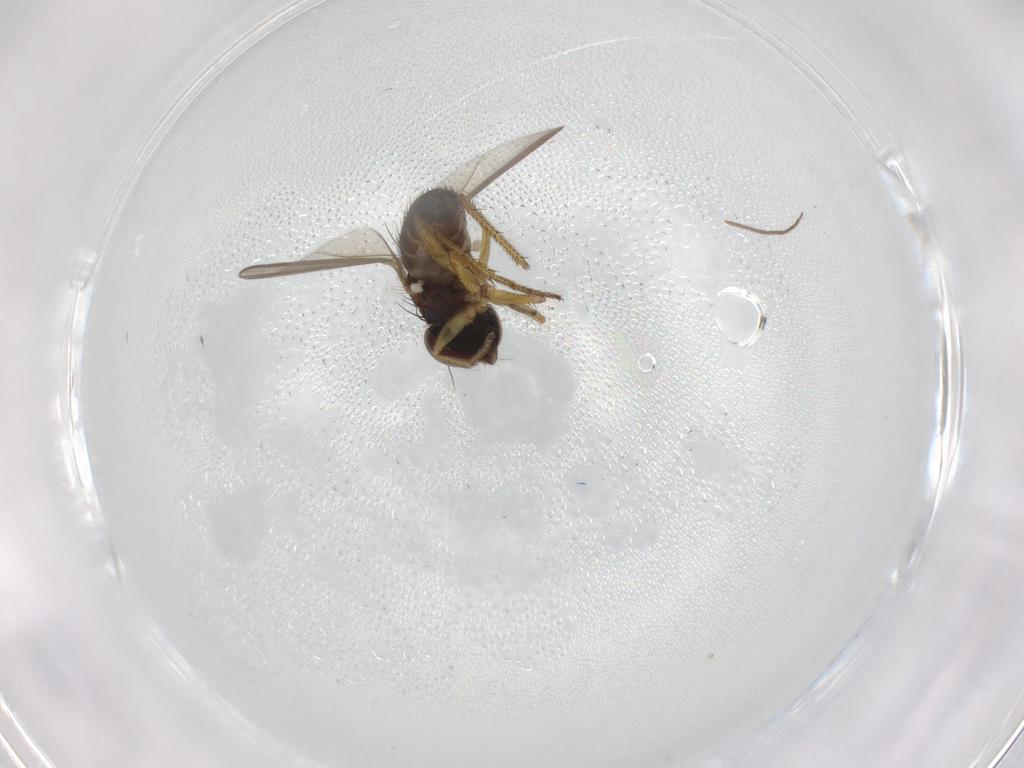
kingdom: Animalia
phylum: Arthropoda
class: Insecta
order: Diptera
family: Chironomidae
